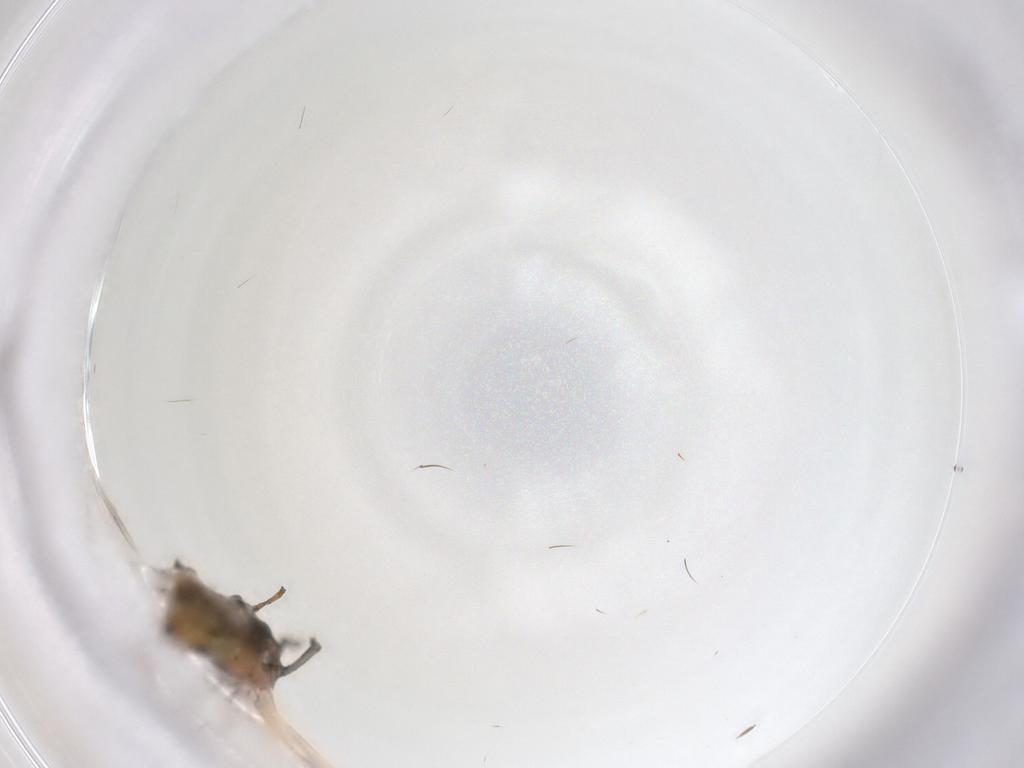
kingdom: Animalia
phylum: Arthropoda
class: Insecta
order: Hemiptera
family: Cicadellidae
